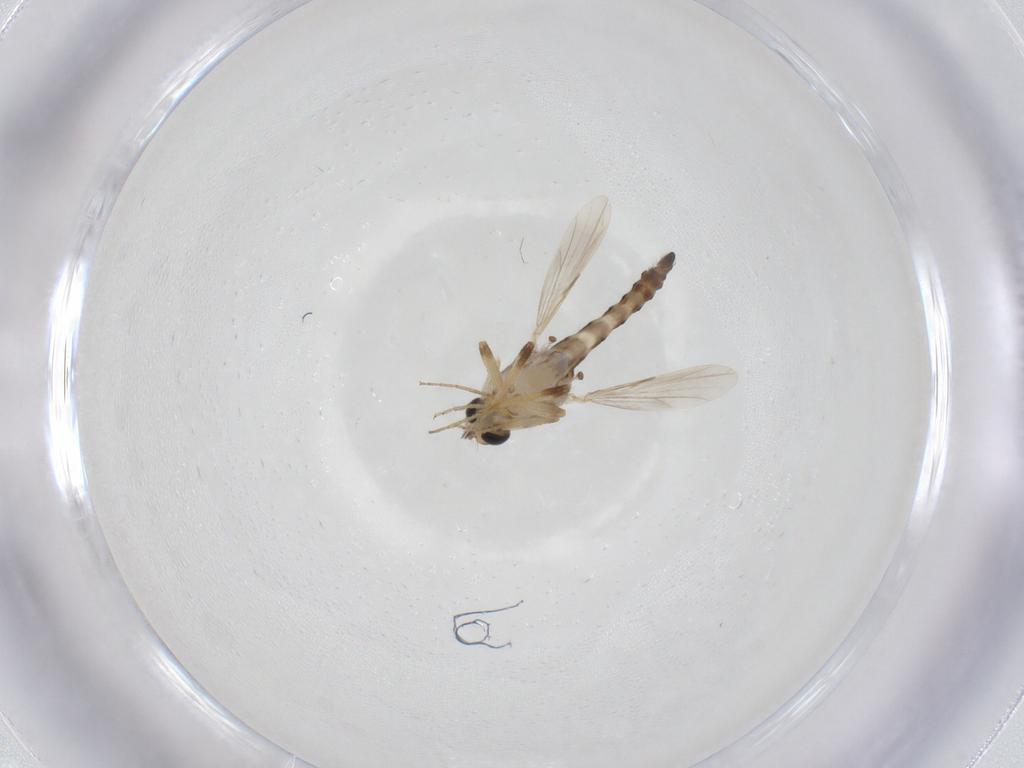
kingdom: Animalia
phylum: Arthropoda
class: Insecta
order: Diptera
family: Ceratopogonidae
